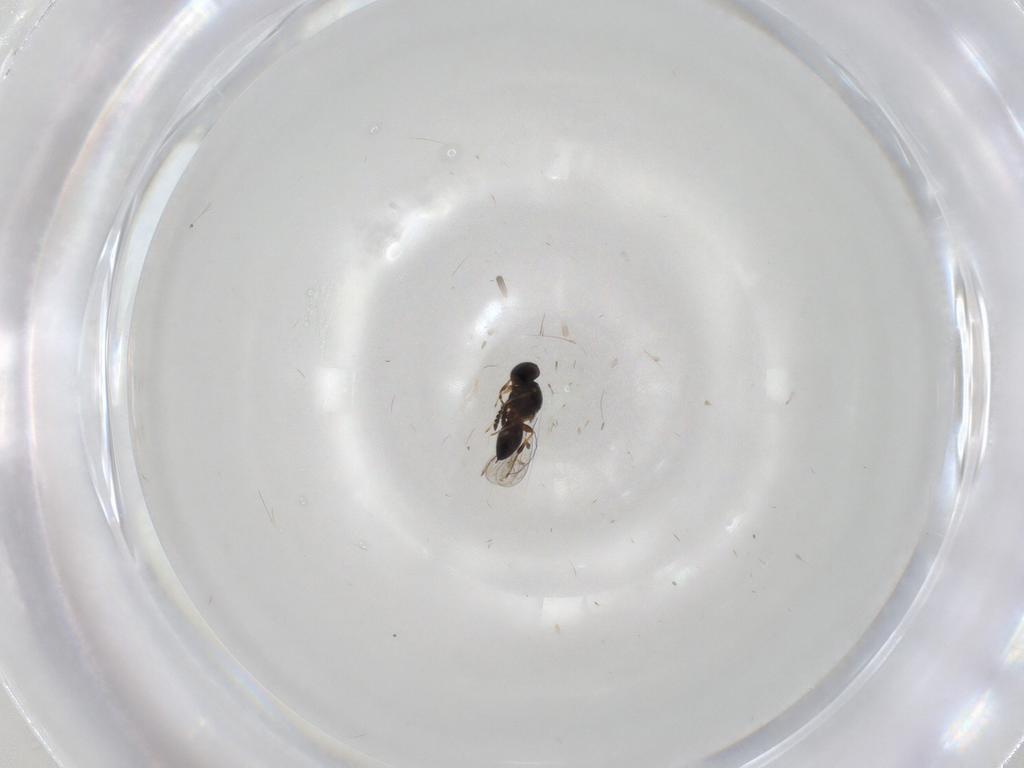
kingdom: Animalia
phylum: Arthropoda
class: Insecta
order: Hymenoptera
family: Platygastridae
